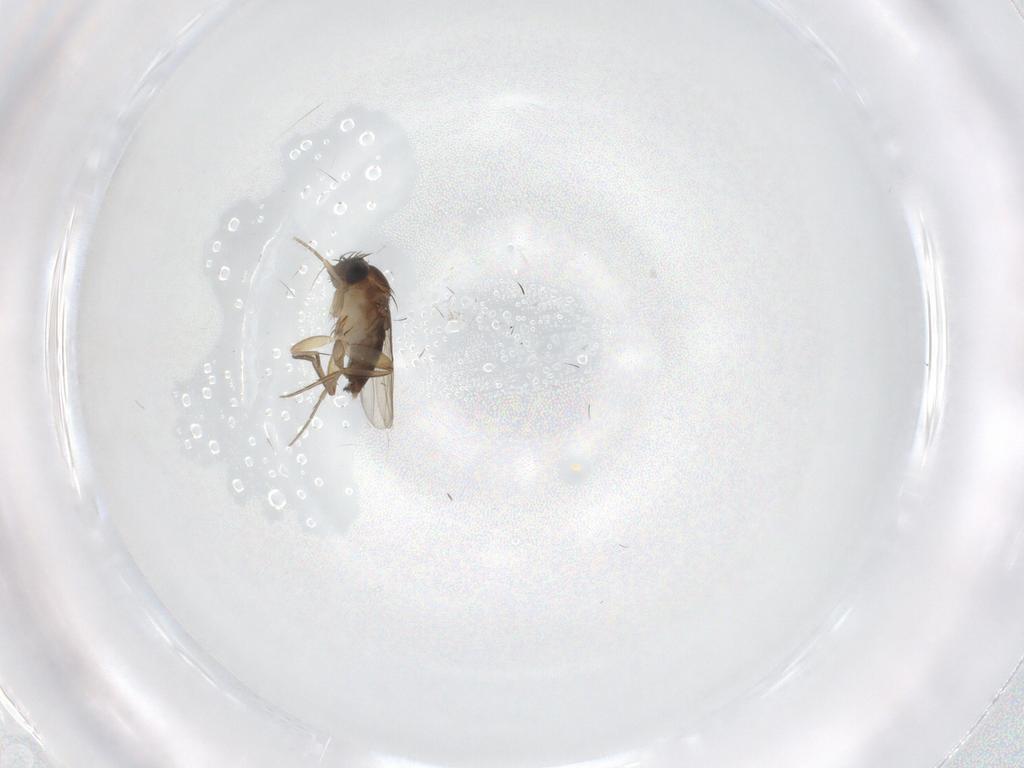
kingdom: Animalia
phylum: Arthropoda
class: Insecta
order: Diptera
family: Phoridae
